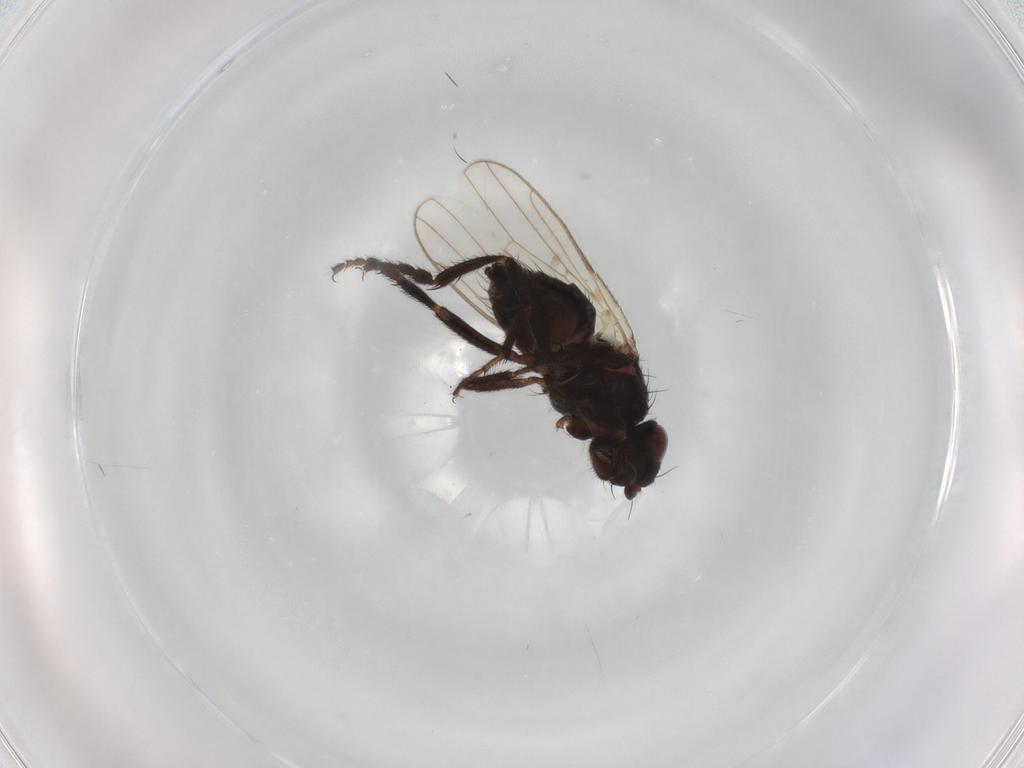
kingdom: Animalia
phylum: Arthropoda
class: Insecta
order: Diptera
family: Sphaeroceridae
